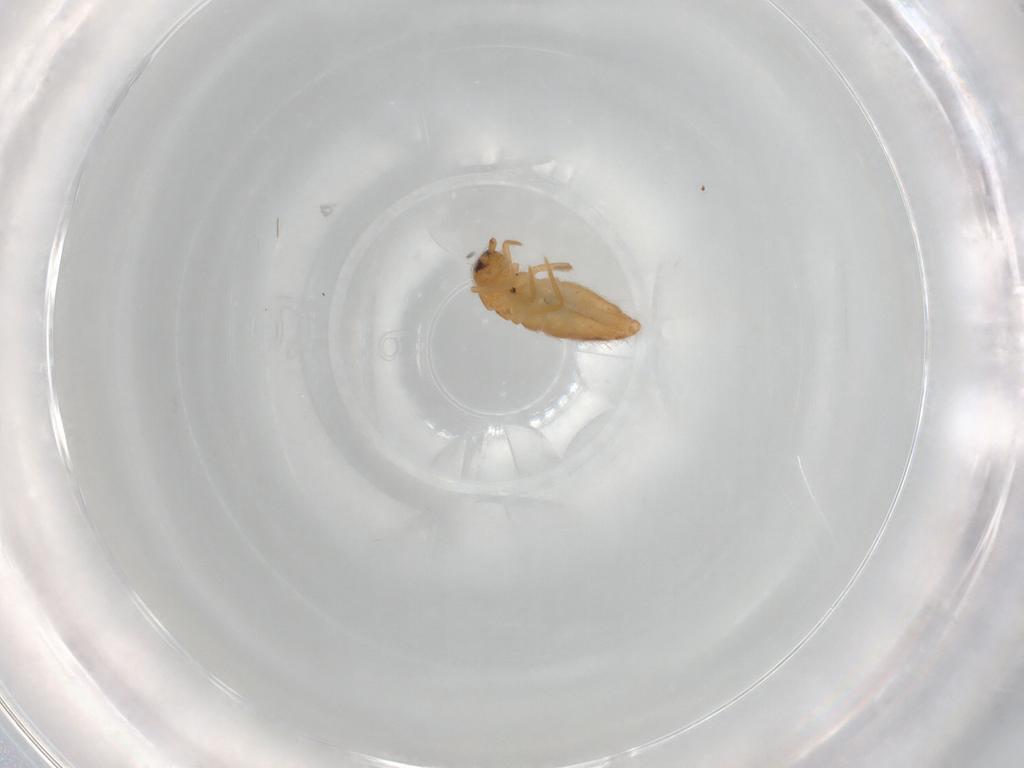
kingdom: Animalia
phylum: Arthropoda
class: Collembola
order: Entomobryomorpha
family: Entomobryidae
